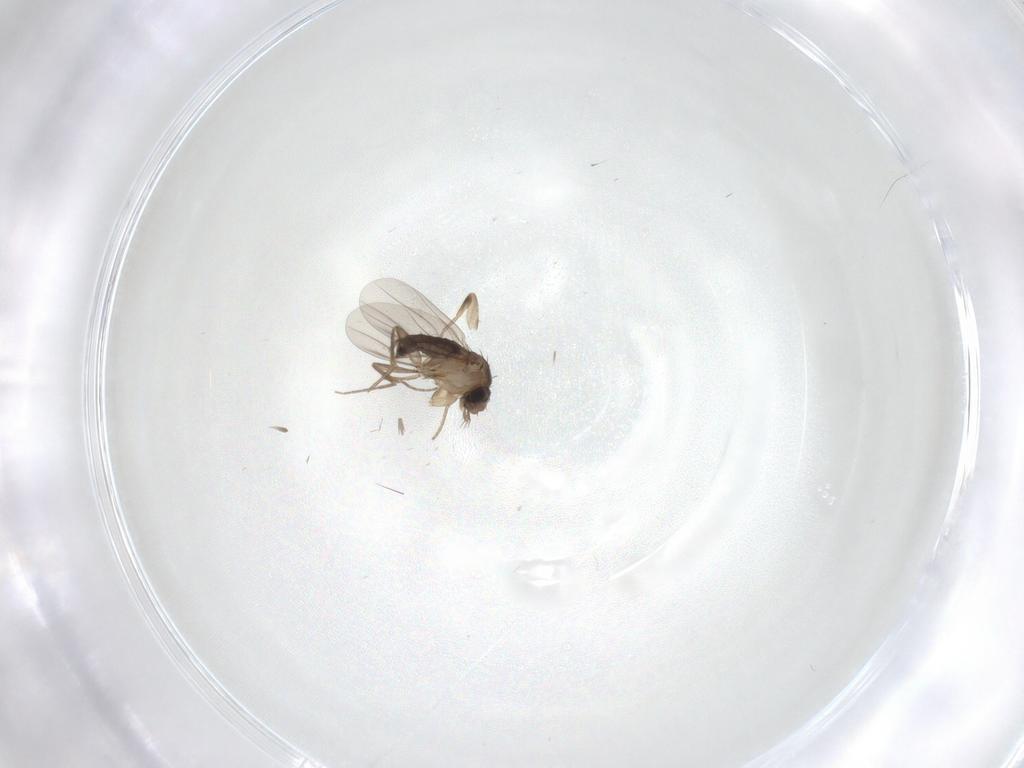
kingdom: Animalia
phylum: Arthropoda
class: Insecta
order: Diptera
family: Phoridae
